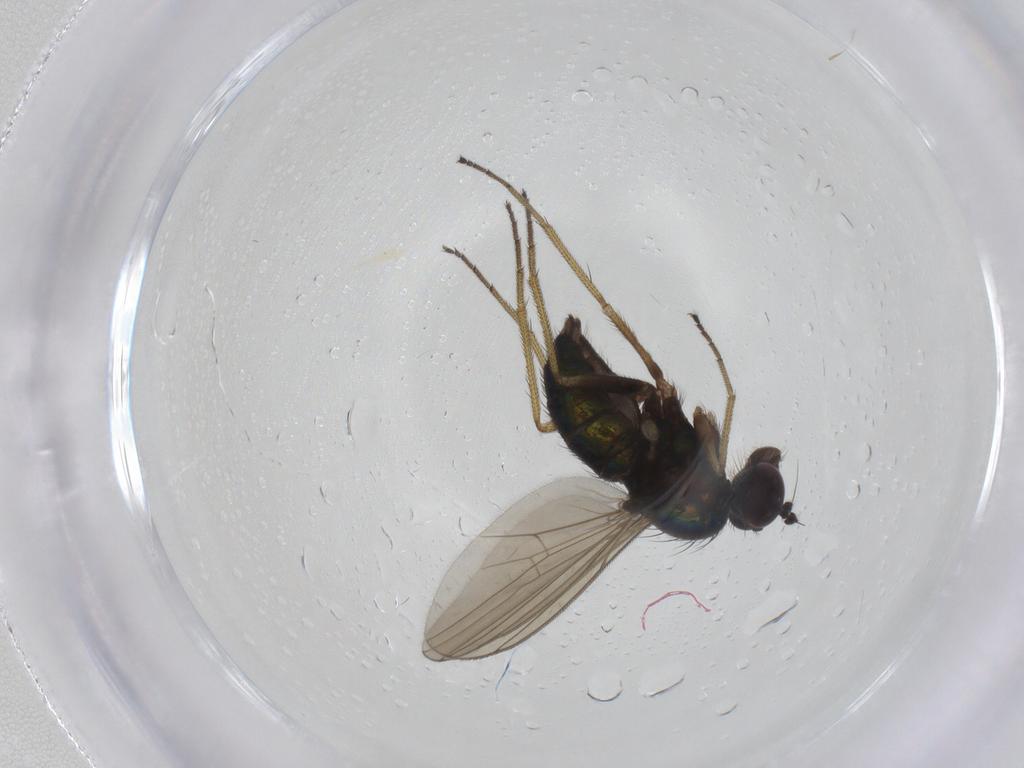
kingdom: Animalia
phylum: Arthropoda
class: Insecta
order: Diptera
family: Dolichopodidae
